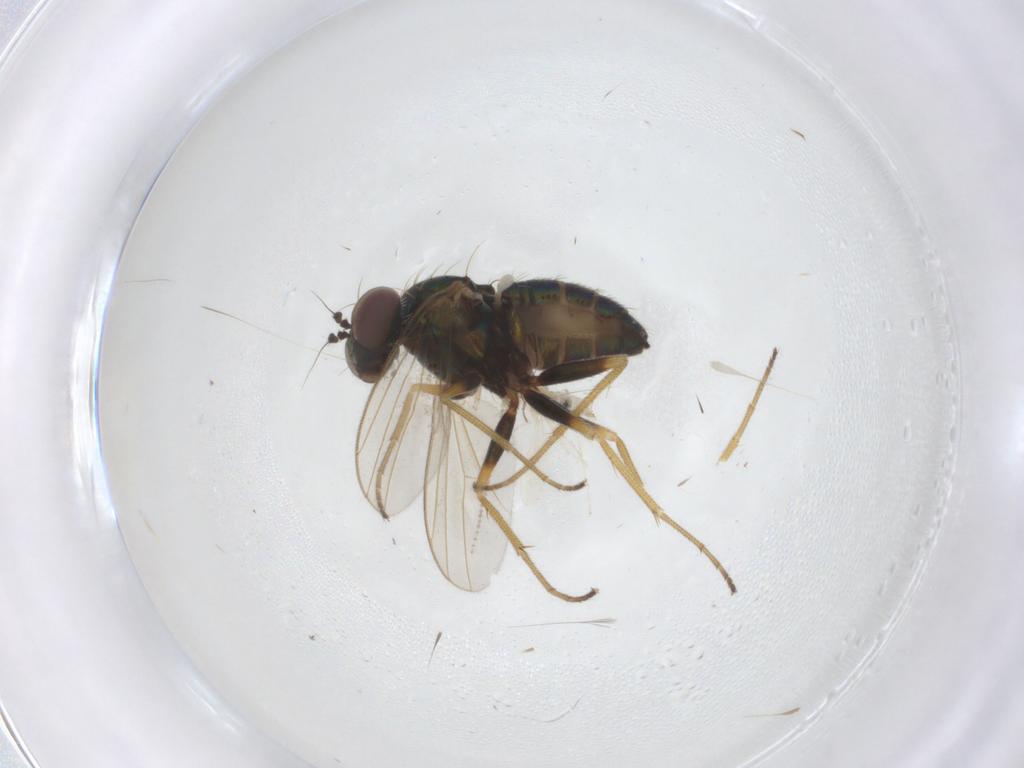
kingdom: Animalia
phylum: Arthropoda
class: Insecta
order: Diptera
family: Dolichopodidae
